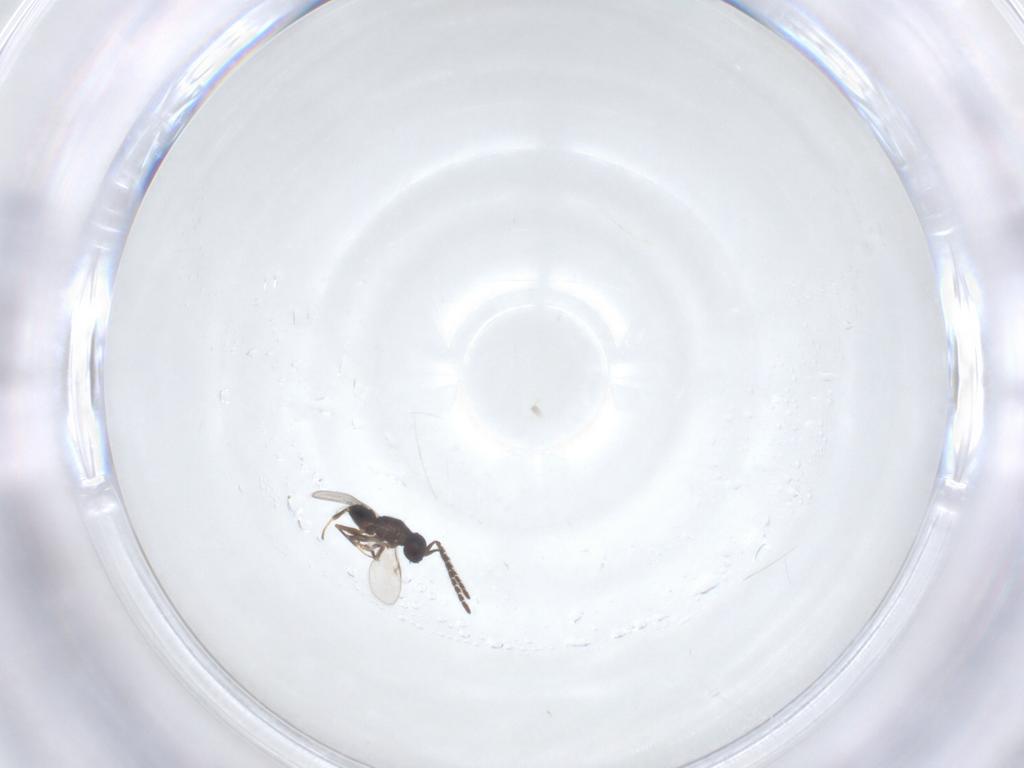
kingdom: Animalia
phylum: Arthropoda
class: Insecta
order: Hymenoptera
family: Encyrtidae
